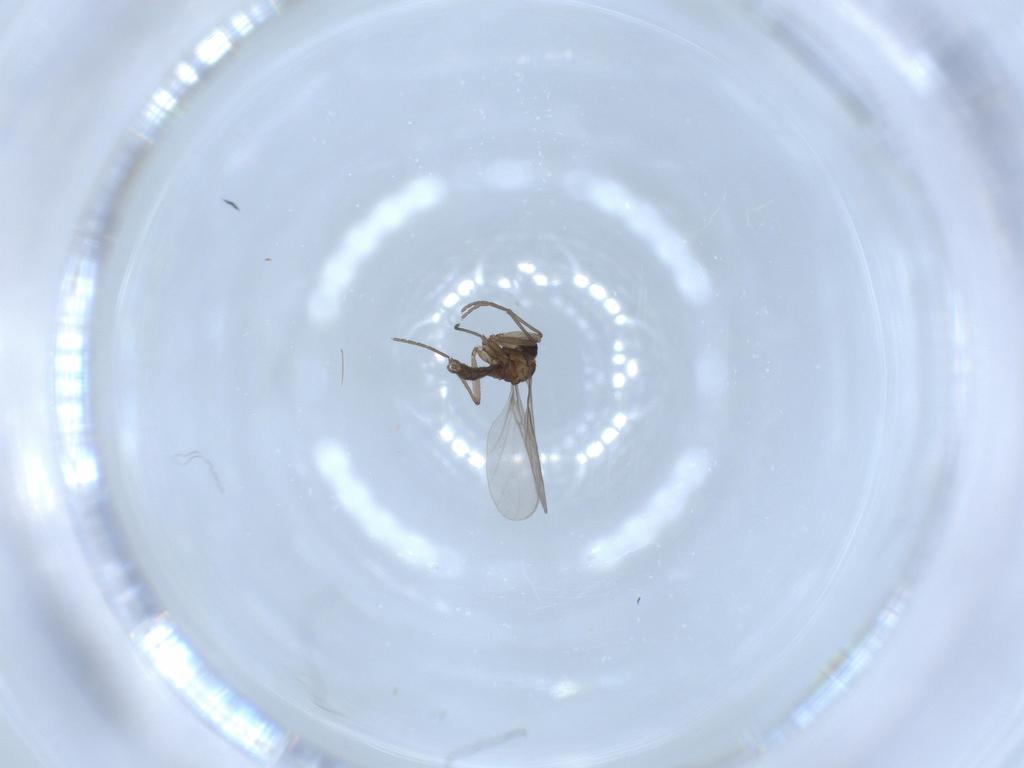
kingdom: Animalia
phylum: Arthropoda
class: Insecta
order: Diptera
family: Sciaridae
